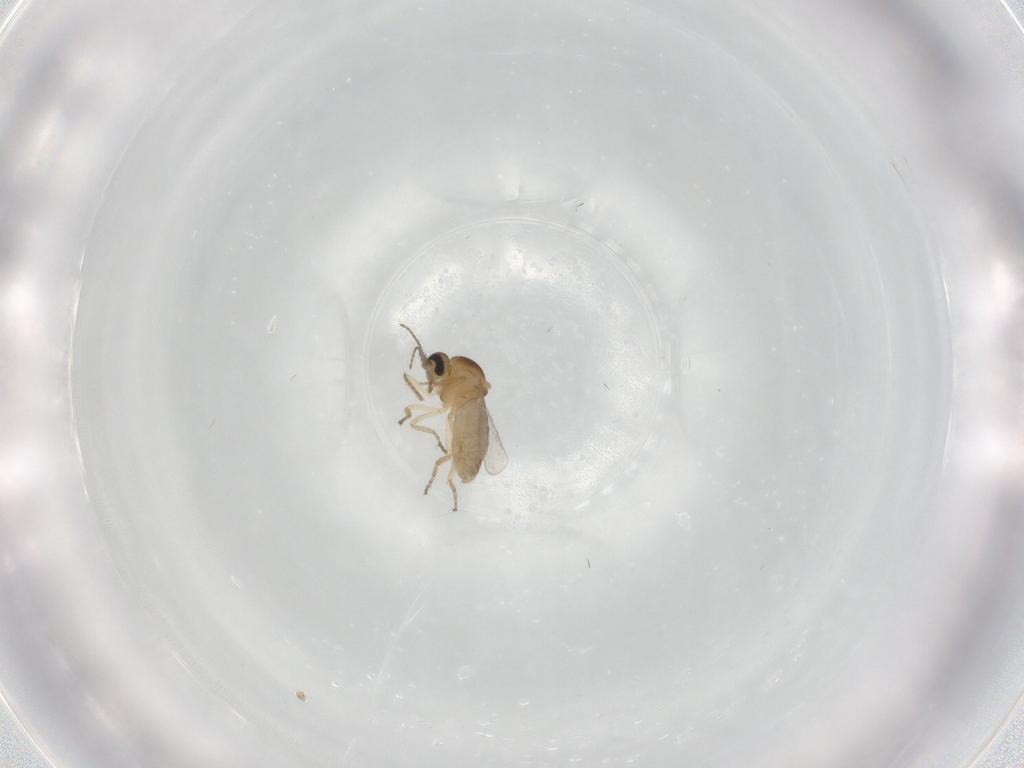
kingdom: Animalia
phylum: Arthropoda
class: Insecta
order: Diptera
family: Ceratopogonidae
